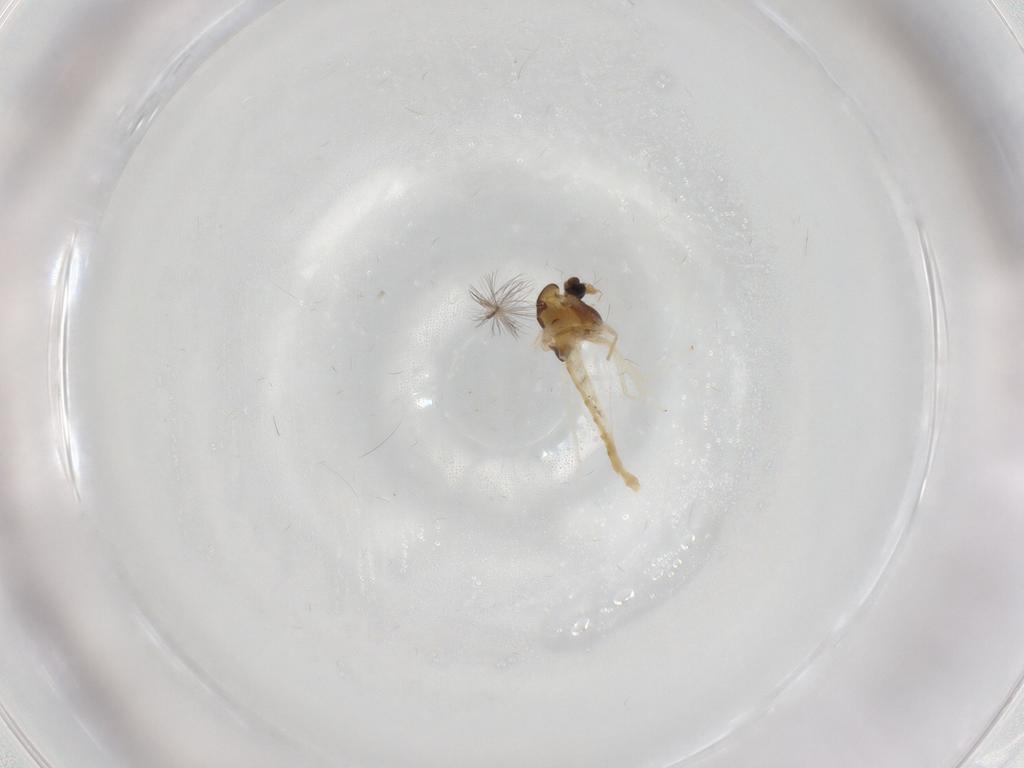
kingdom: Animalia
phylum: Arthropoda
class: Insecta
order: Diptera
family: Chironomidae
